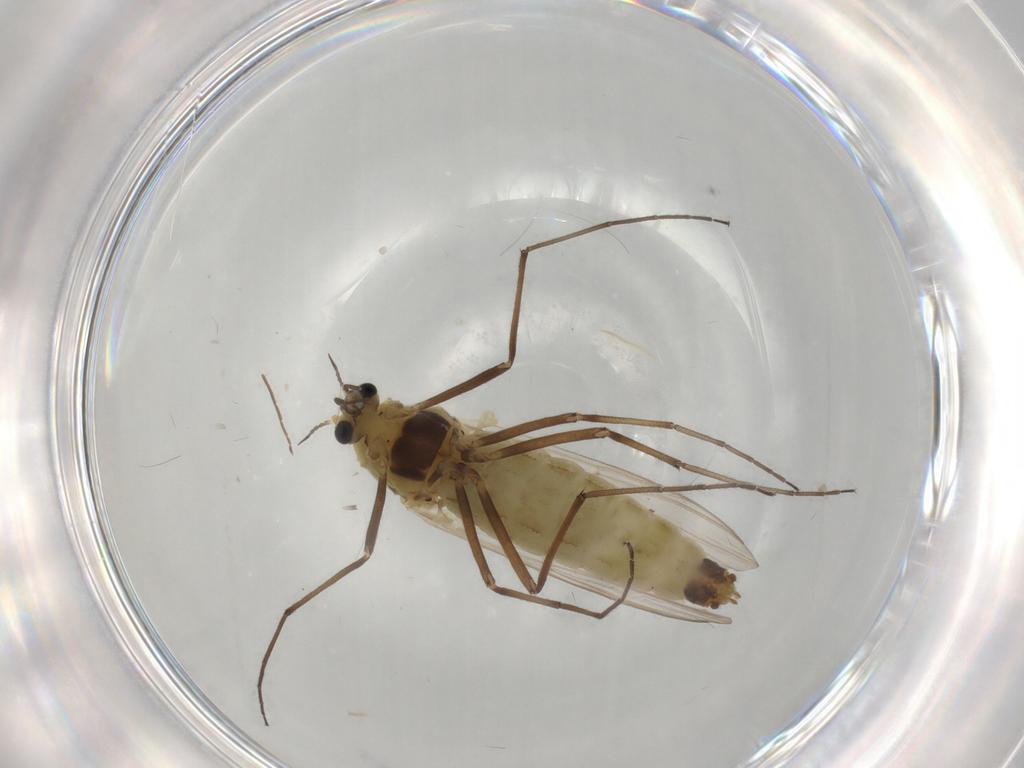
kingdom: Animalia
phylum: Arthropoda
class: Insecta
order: Diptera
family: Chironomidae
